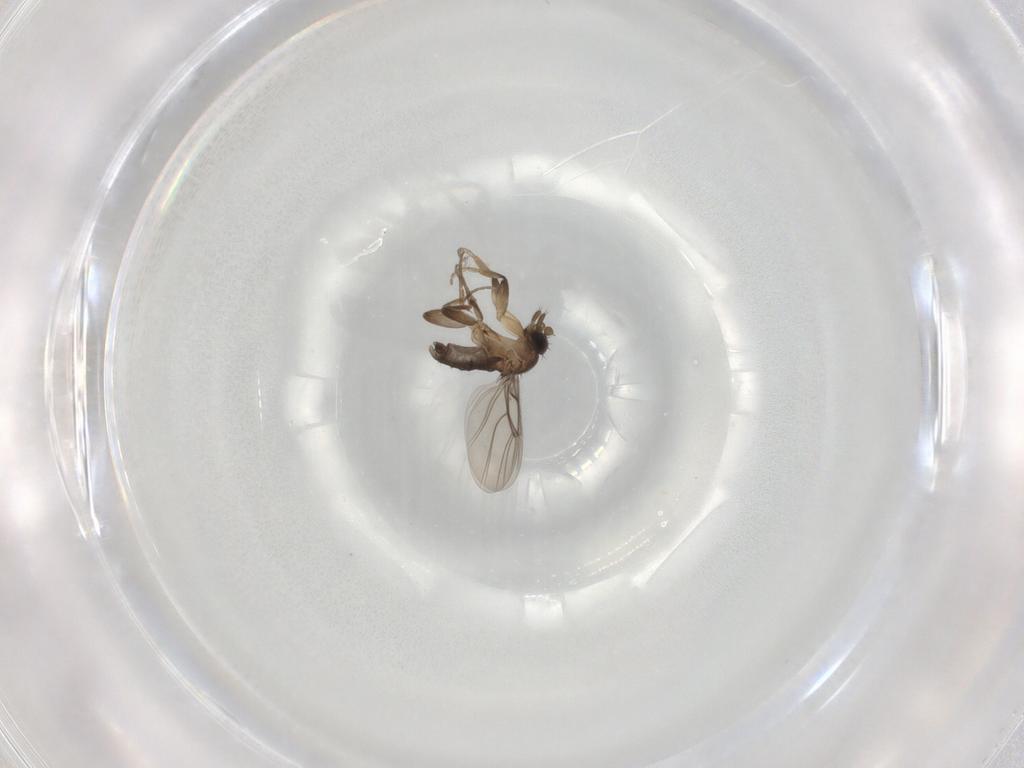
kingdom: Animalia
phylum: Arthropoda
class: Insecta
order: Diptera
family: Phoridae
